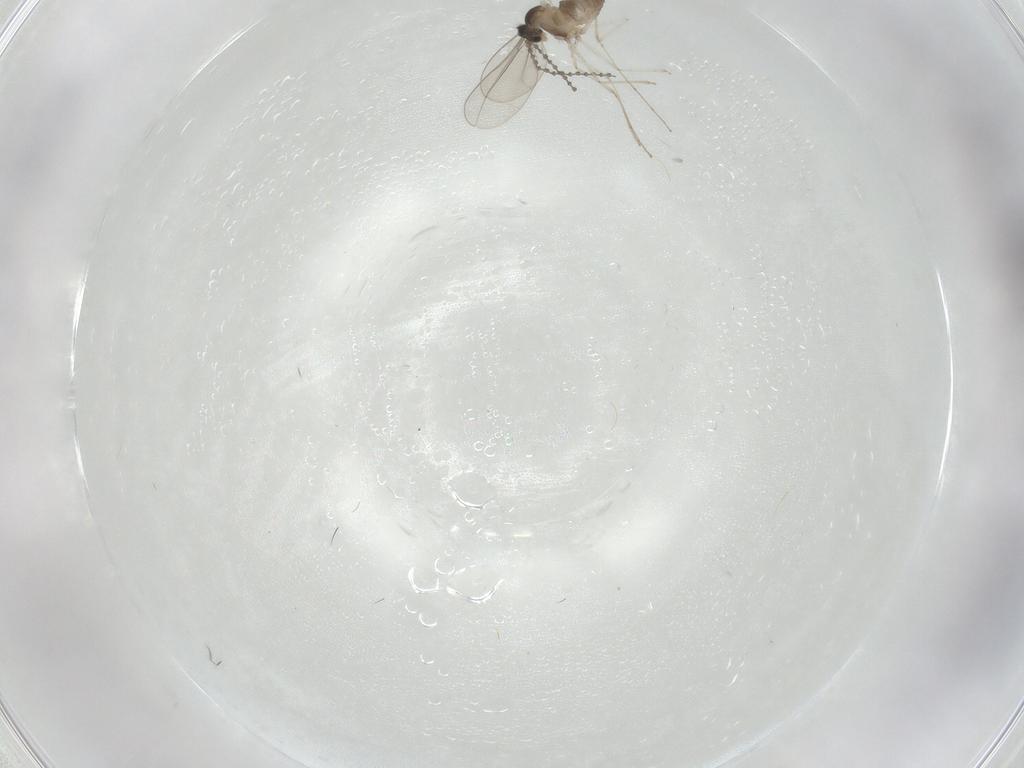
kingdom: Animalia
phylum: Arthropoda
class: Insecta
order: Diptera
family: Cecidomyiidae
